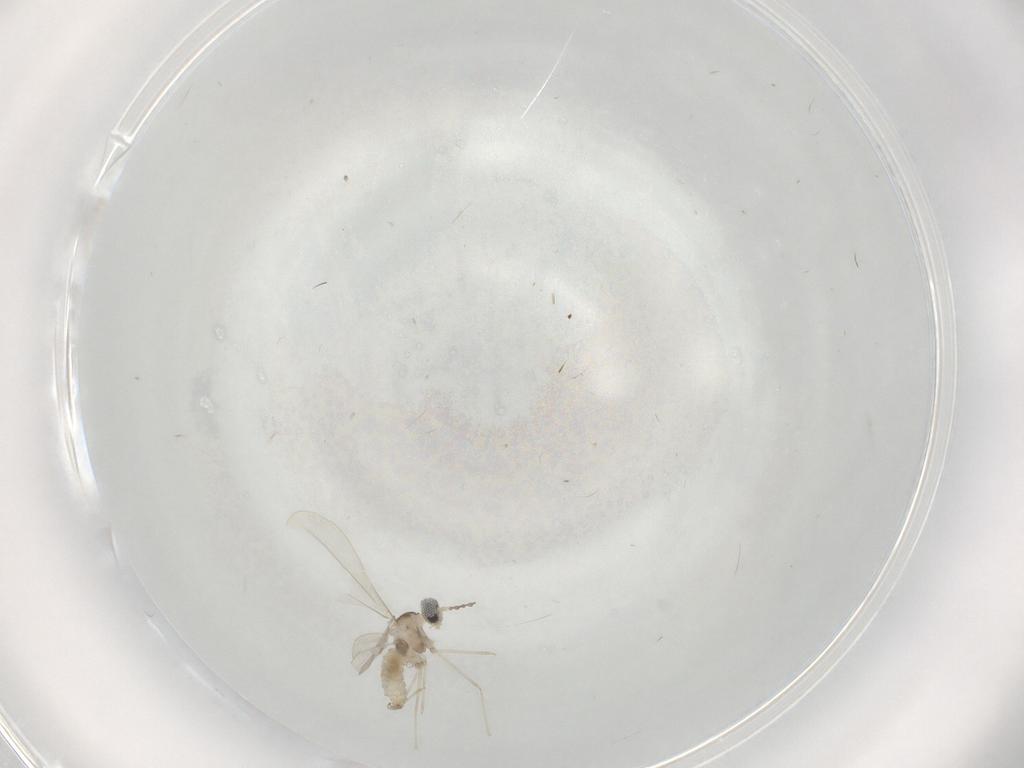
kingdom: Animalia
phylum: Arthropoda
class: Insecta
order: Diptera
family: Cecidomyiidae
